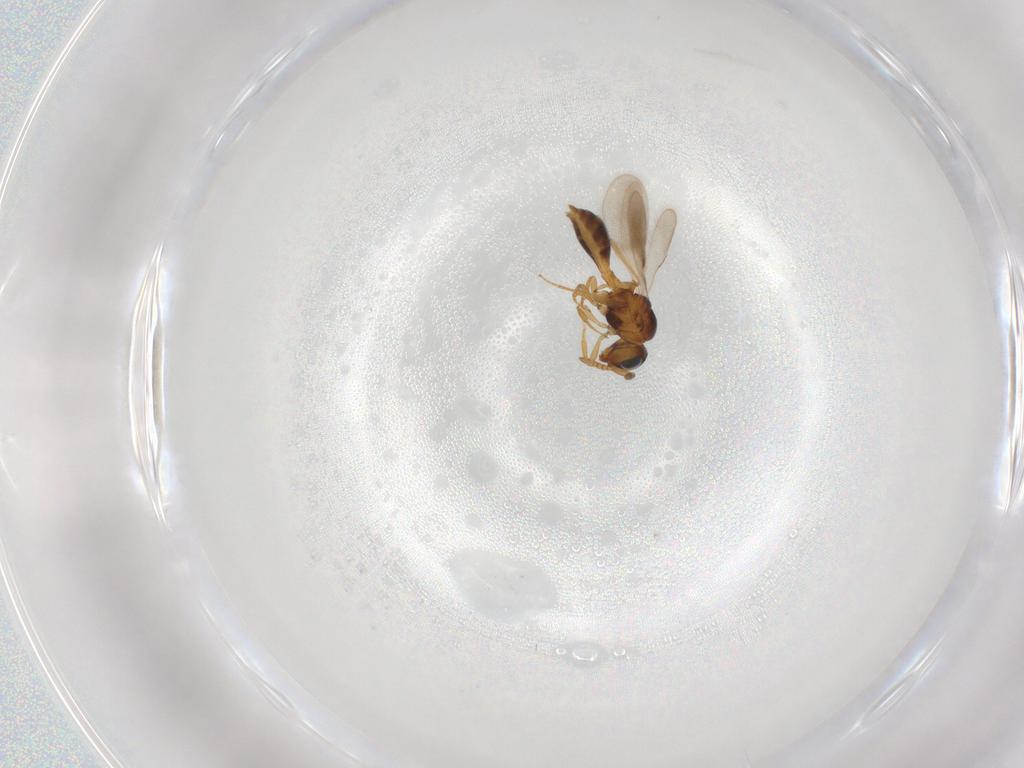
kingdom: Animalia
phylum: Arthropoda
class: Insecta
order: Hymenoptera
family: Scelionidae
